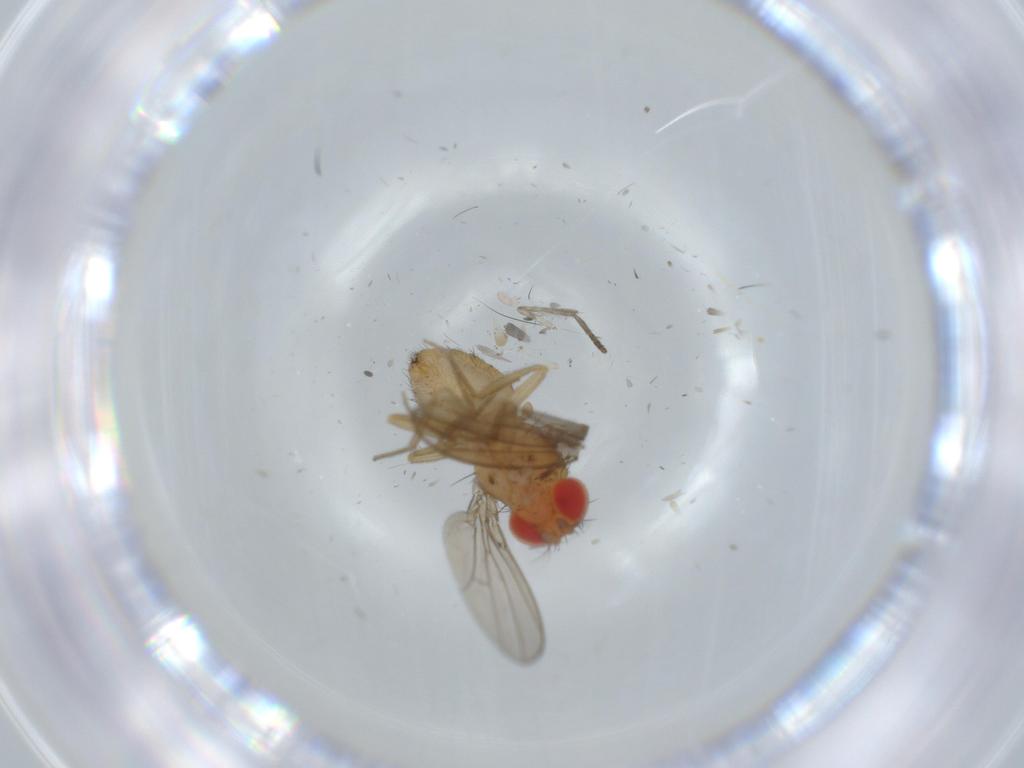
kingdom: Animalia
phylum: Arthropoda
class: Insecta
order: Diptera
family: Drosophilidae
